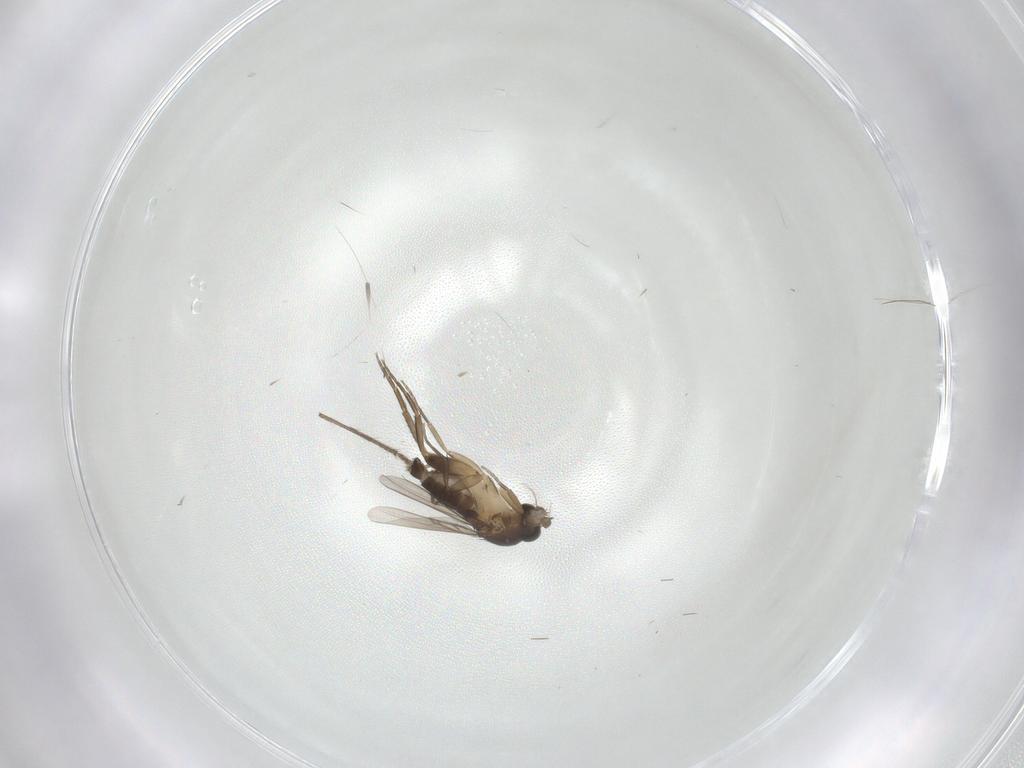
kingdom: Animalia
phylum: Arthropoda
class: Insecta
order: Diptera
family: Phoridae
